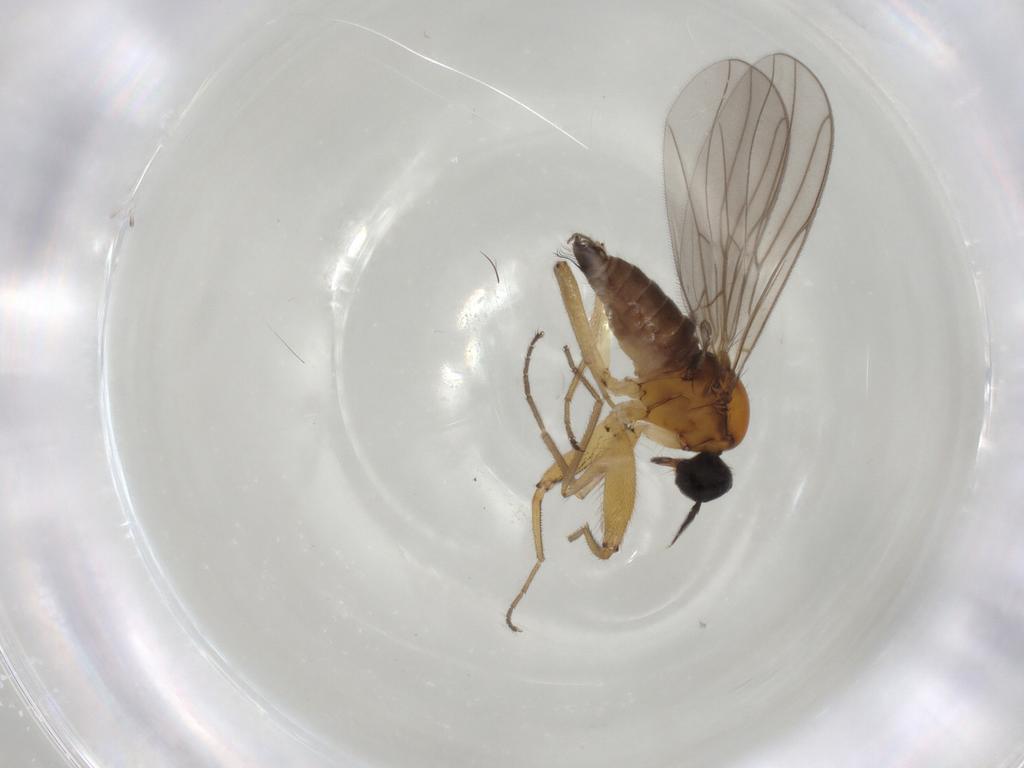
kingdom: Animalia
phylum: Arthropoda
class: Insecta
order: Diptera
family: Hybotidae
